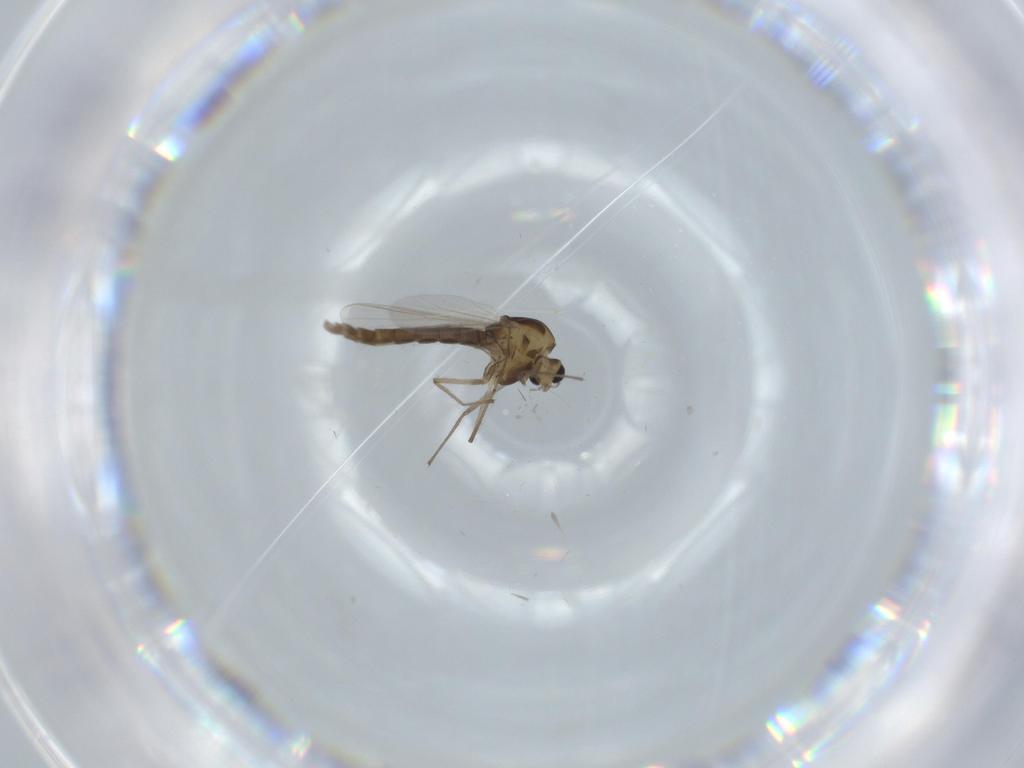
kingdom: Animalia
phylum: Arthropoda
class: Insecta
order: Diptera
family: Chironomidae
